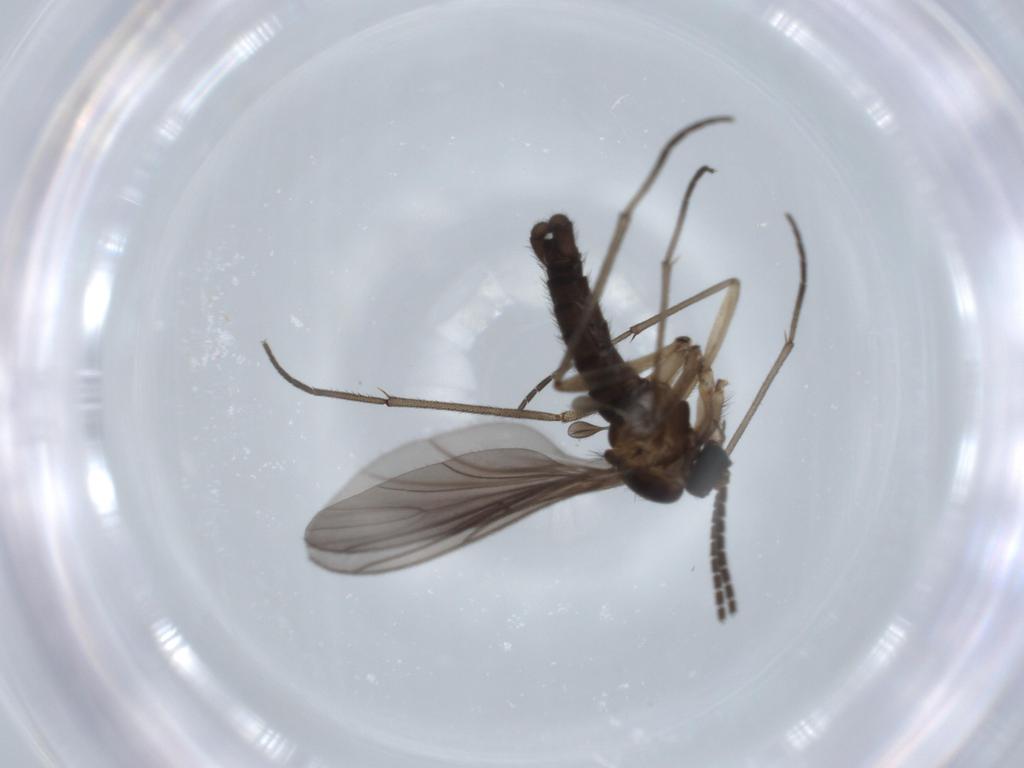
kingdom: Animalia
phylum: Arthropoda
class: Insecta
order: Diptera
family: Sciaridae
